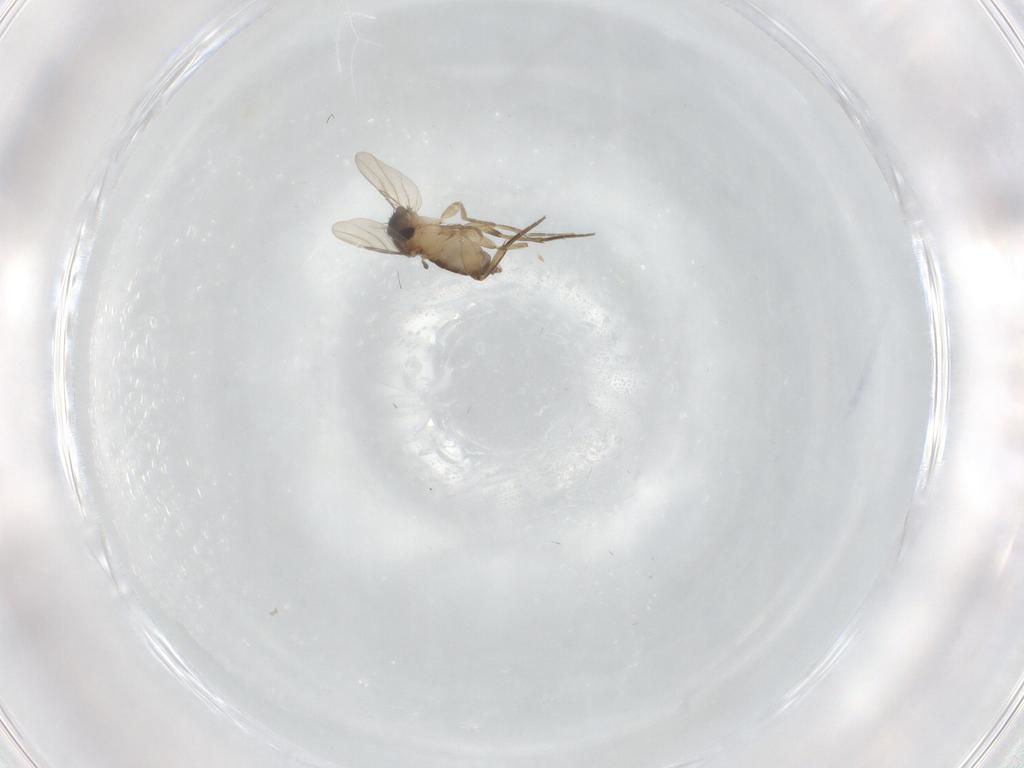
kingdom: Animalia
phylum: Arthropoda
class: Insecta
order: Diptera
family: Phoridae
